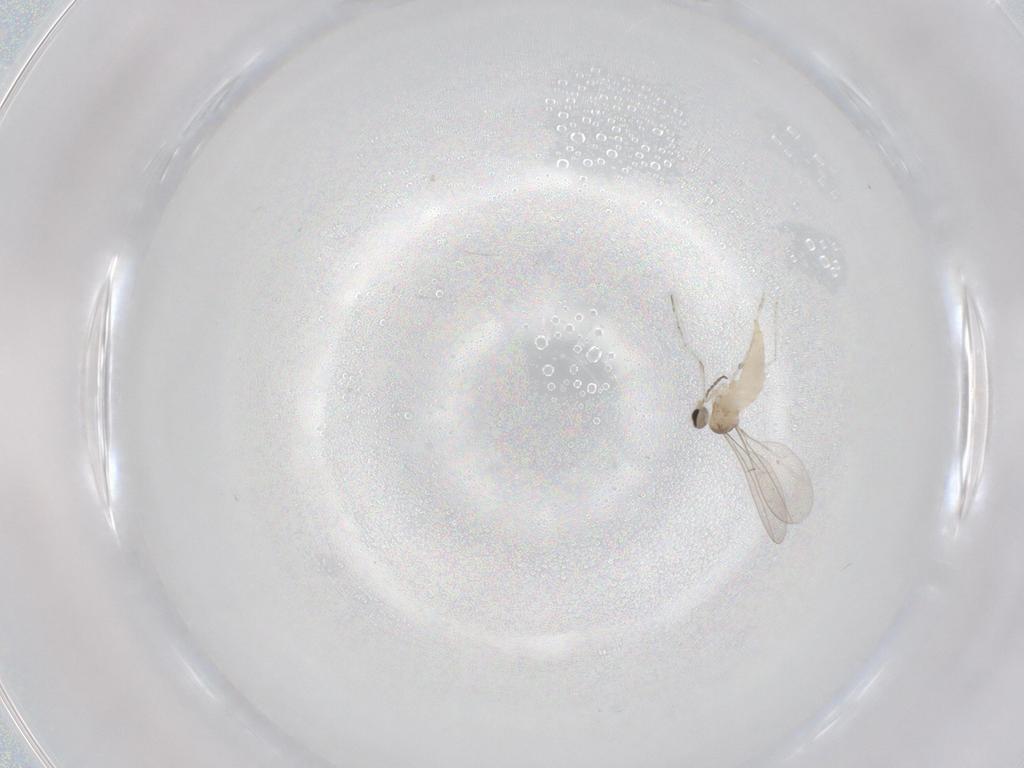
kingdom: Animalia
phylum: Arthropoda
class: Insecta
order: Diptera
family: Cecidomyiidae
